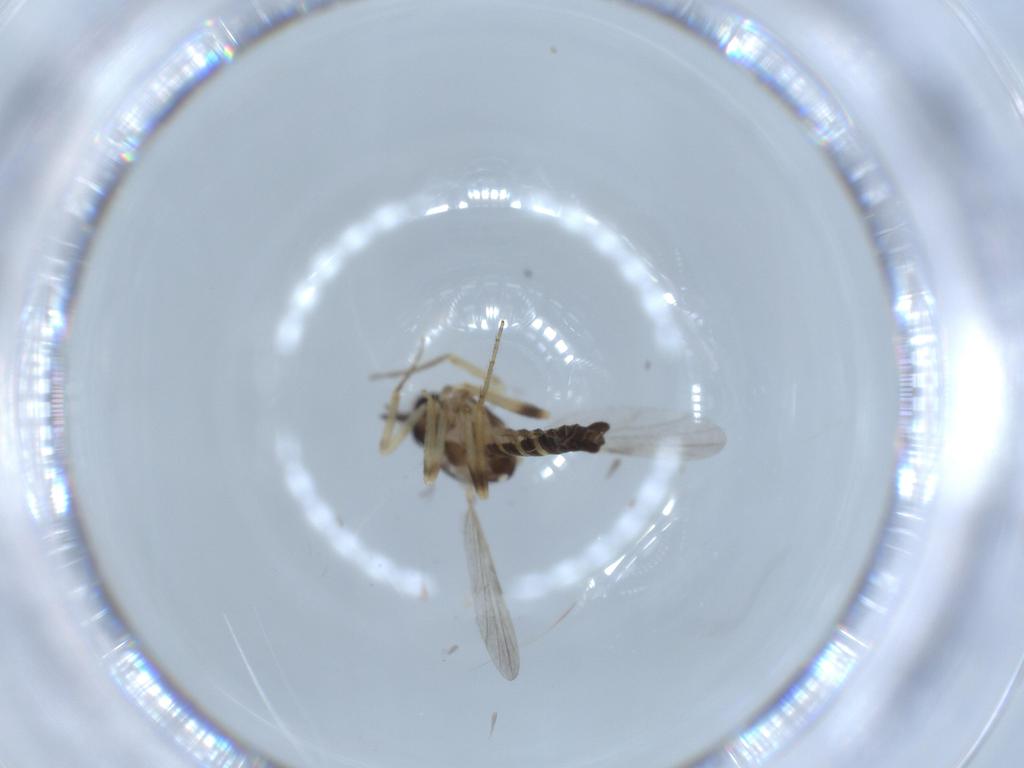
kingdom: Animalia
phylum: Arthropoda
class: Insecta
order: Diptera
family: Ceratopogonidae
